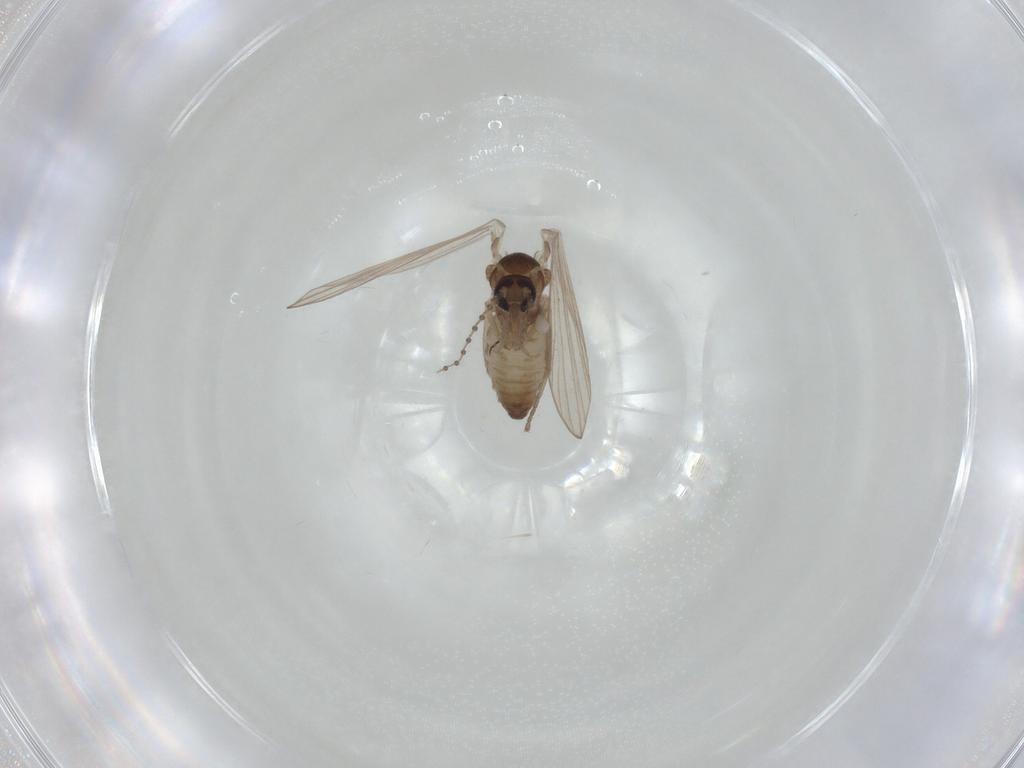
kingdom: Animalia
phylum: Arthropoda
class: Insecta
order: Diptera
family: Psychodidae
